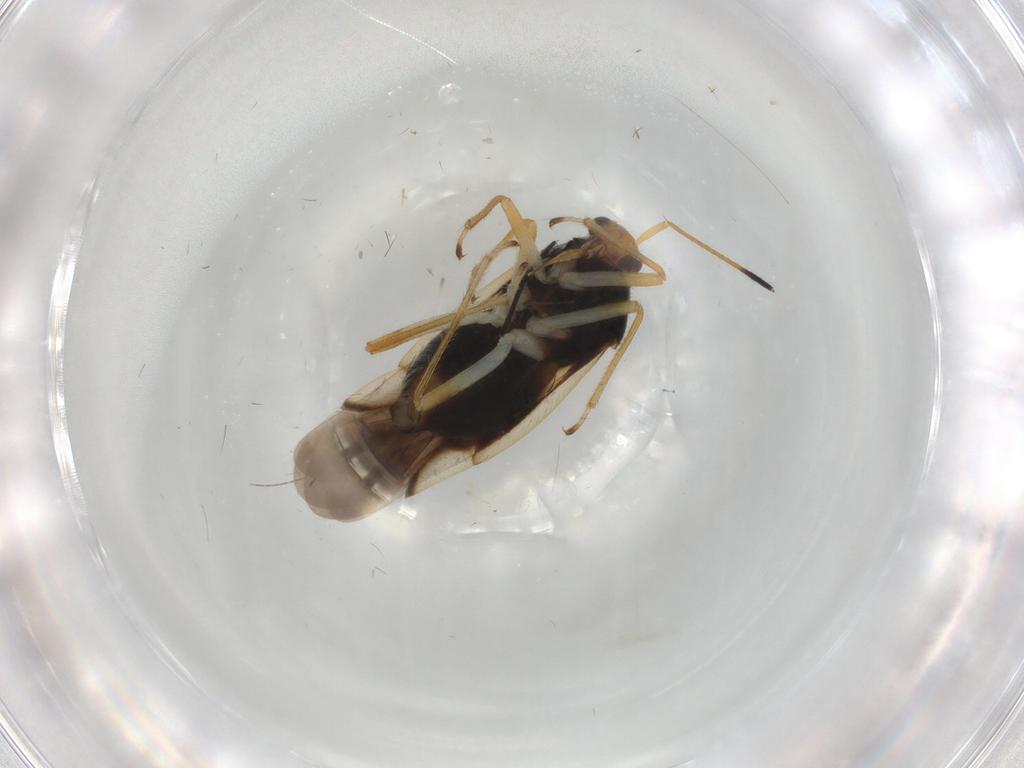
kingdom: Animalia
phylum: Arthropoda
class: Insecta
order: Hemiptera
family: Miridae
